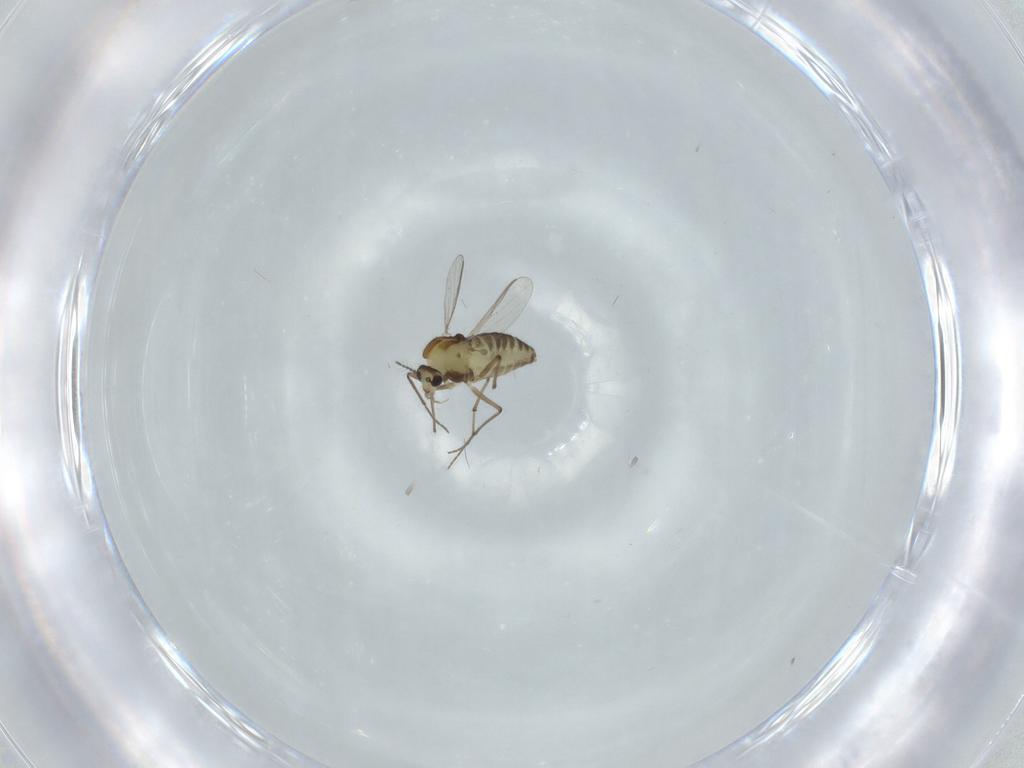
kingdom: Animalia
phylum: Arthropoda
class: Insecta
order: Diptera
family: Chironomidae
